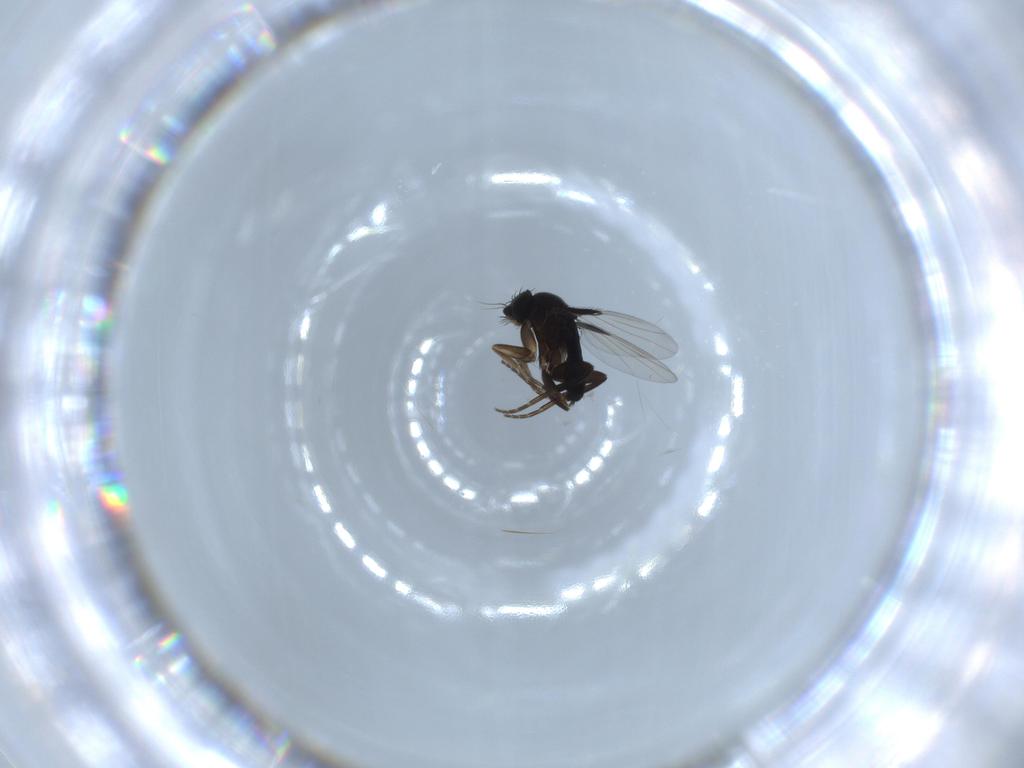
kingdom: Animalia
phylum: Arthropoda
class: Insecta
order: Diptera
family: Phoridae
